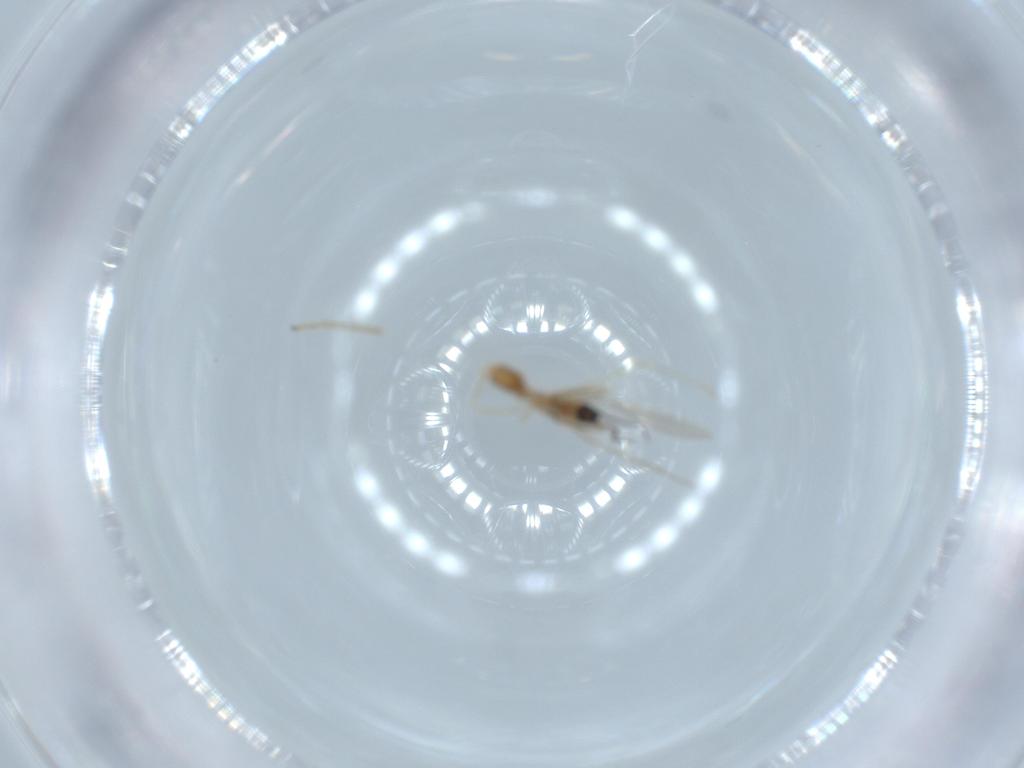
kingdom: Animalia
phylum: Arthropoda
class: Insecta
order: Diptera
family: Cecidomyiidae
